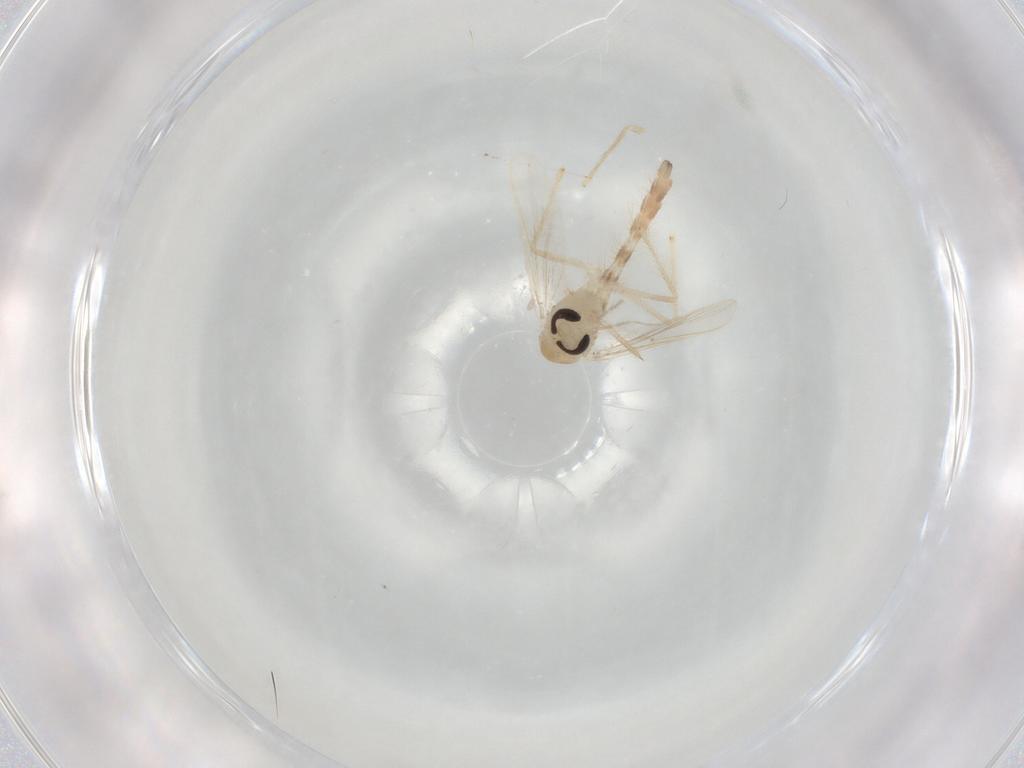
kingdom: Animalia
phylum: Arthropoda
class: Insecta
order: Diptera
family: Chironomidae
